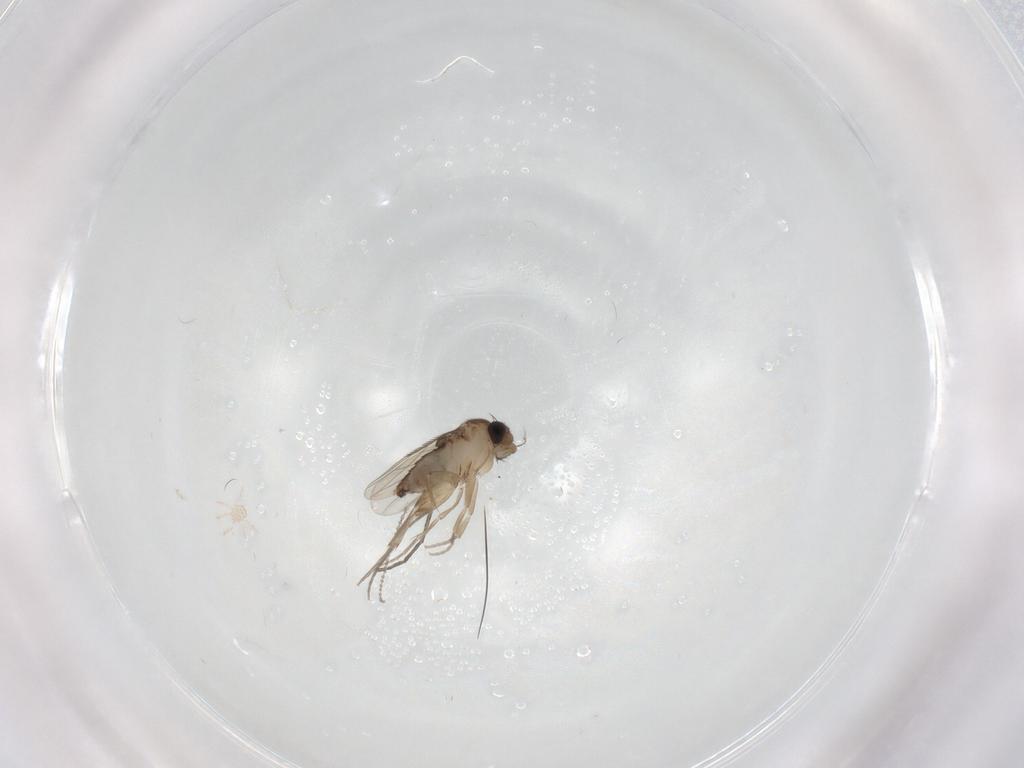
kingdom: Animalia
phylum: Arthropoda
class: Insecta
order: Diptera
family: Phoridae
